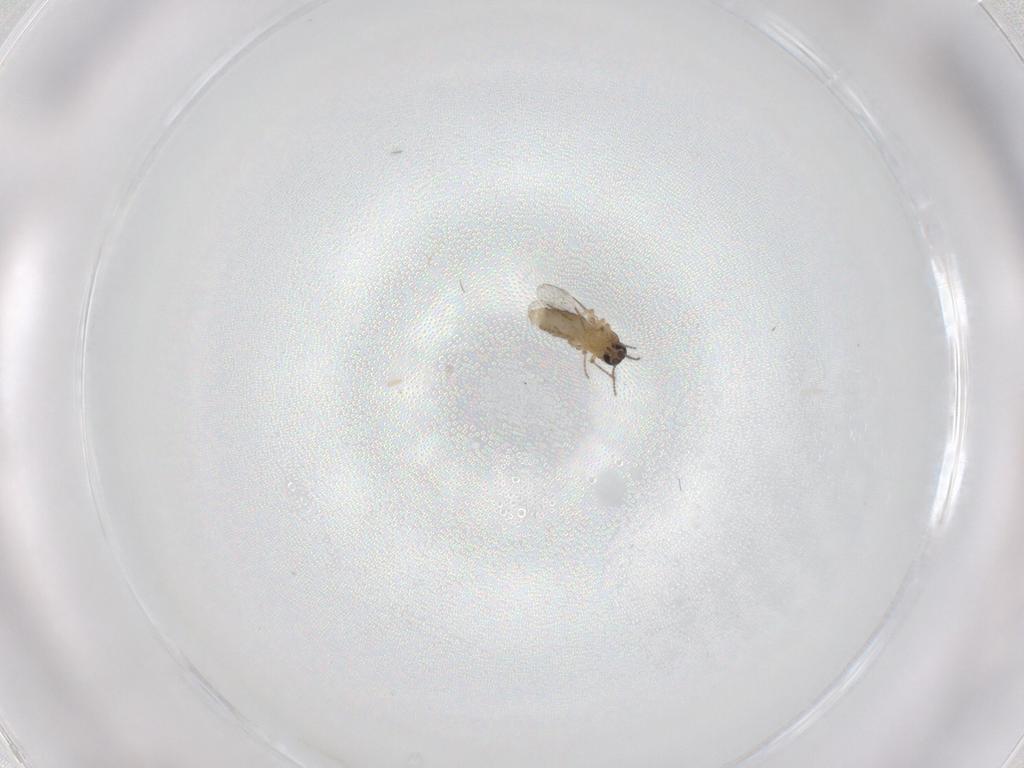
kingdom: Animalia
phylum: Arthropoda
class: Insecta
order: Diptera
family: Ceratopogonidae
